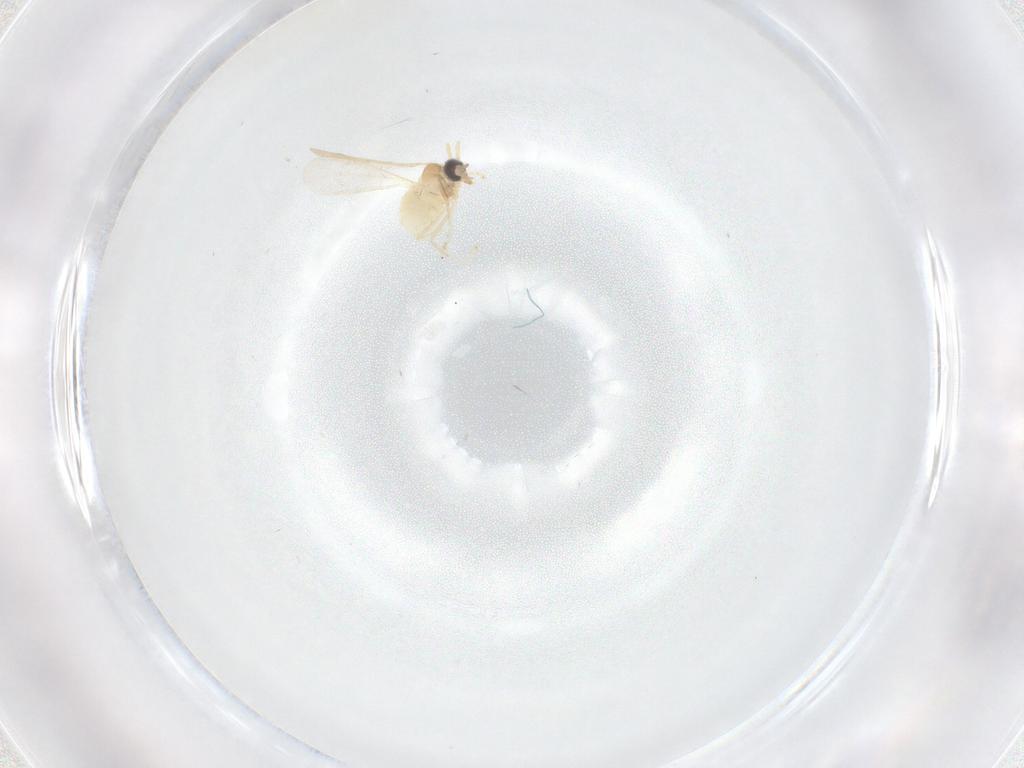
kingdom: Animalia
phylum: Arthropoda
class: Insecta
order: Diptera
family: Cecidomyiidae
